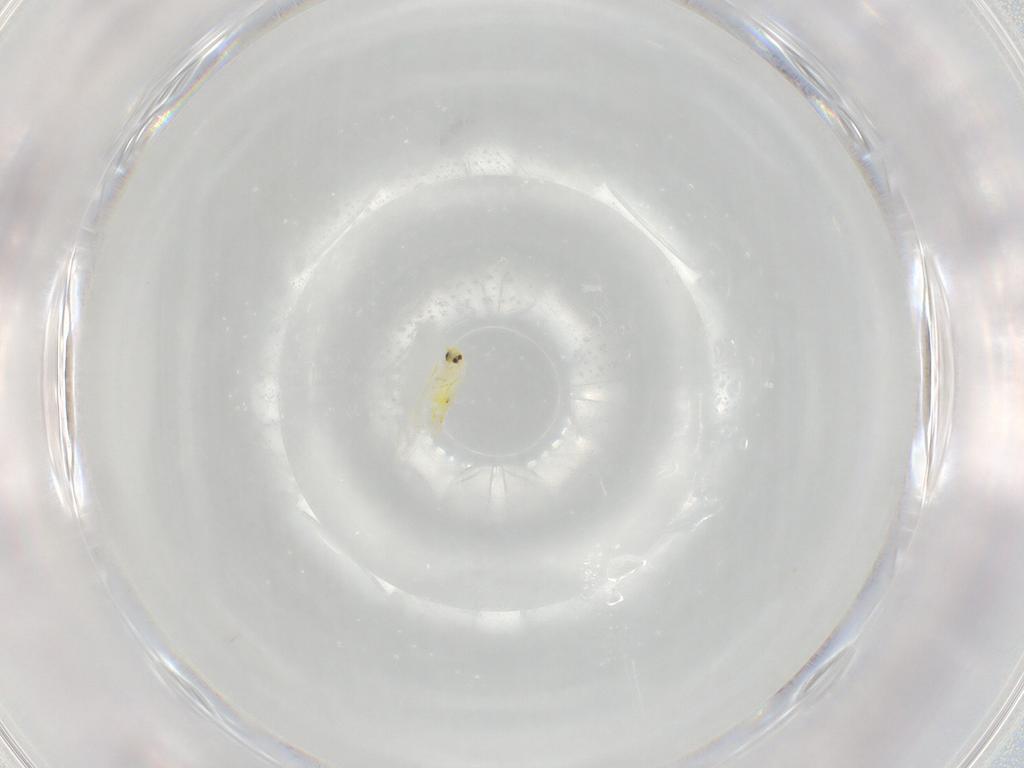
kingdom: Animalia
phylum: Arthropoda
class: Insecta
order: Hemiptera
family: Aleyrodidae
